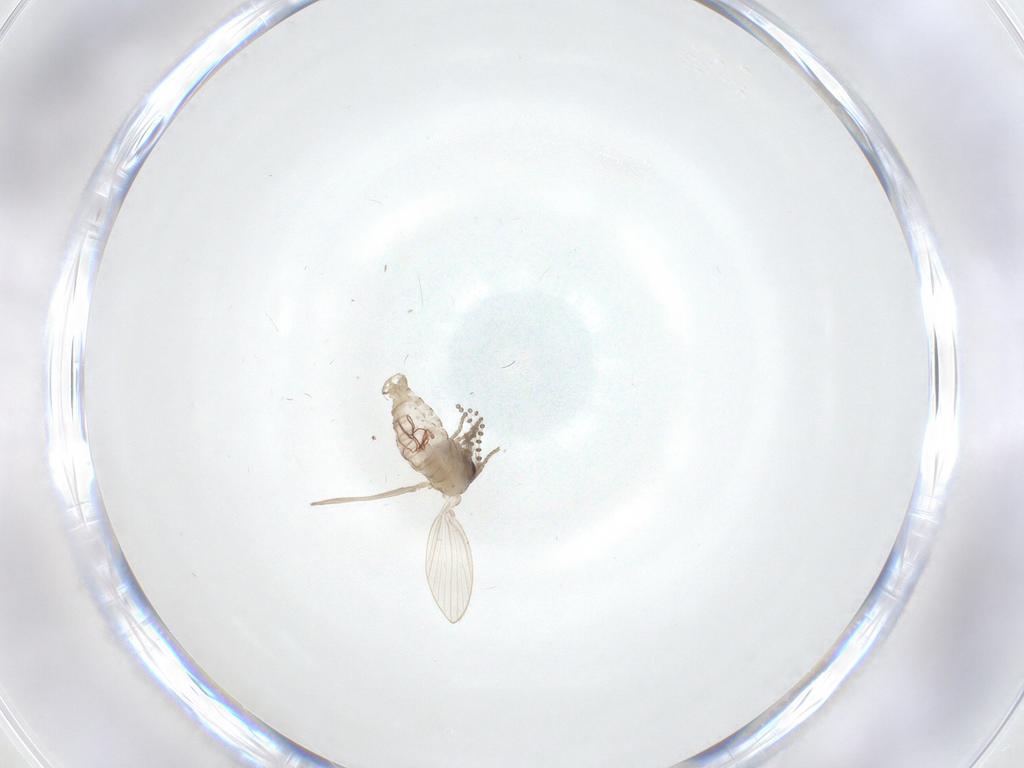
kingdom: Animalia
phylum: Arthropoda
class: Insecta
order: Diptera
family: Psychodidae
